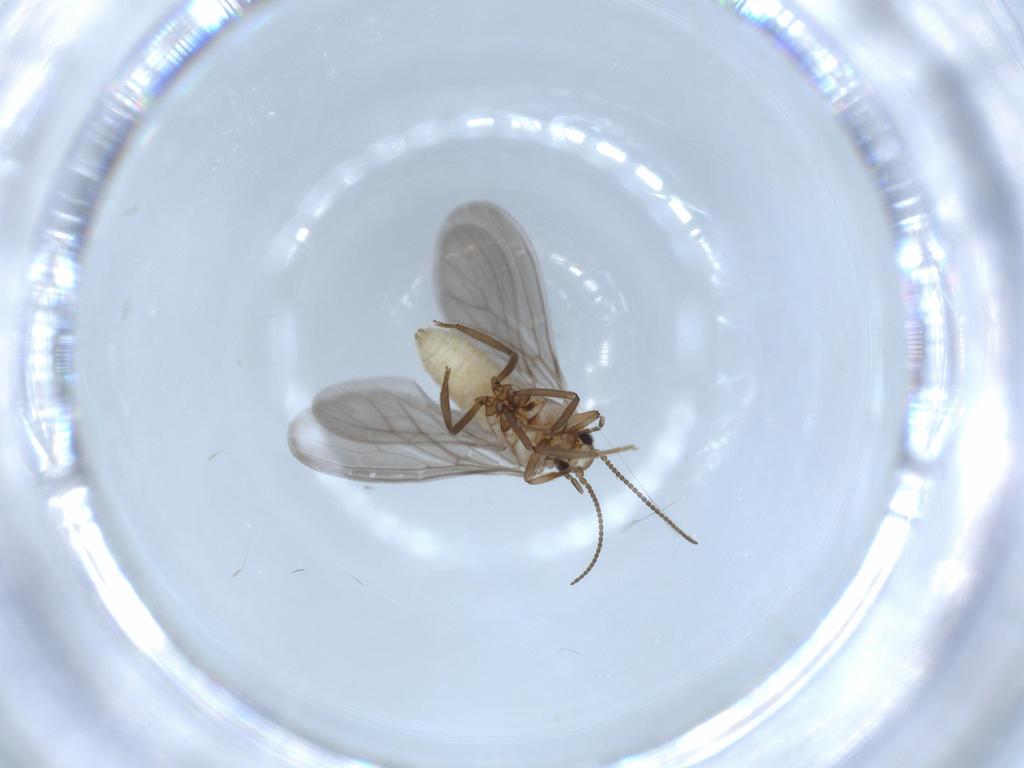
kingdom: Animalia
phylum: Arthropoda
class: Insecta
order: Neuroptera
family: Coniopterygidae
